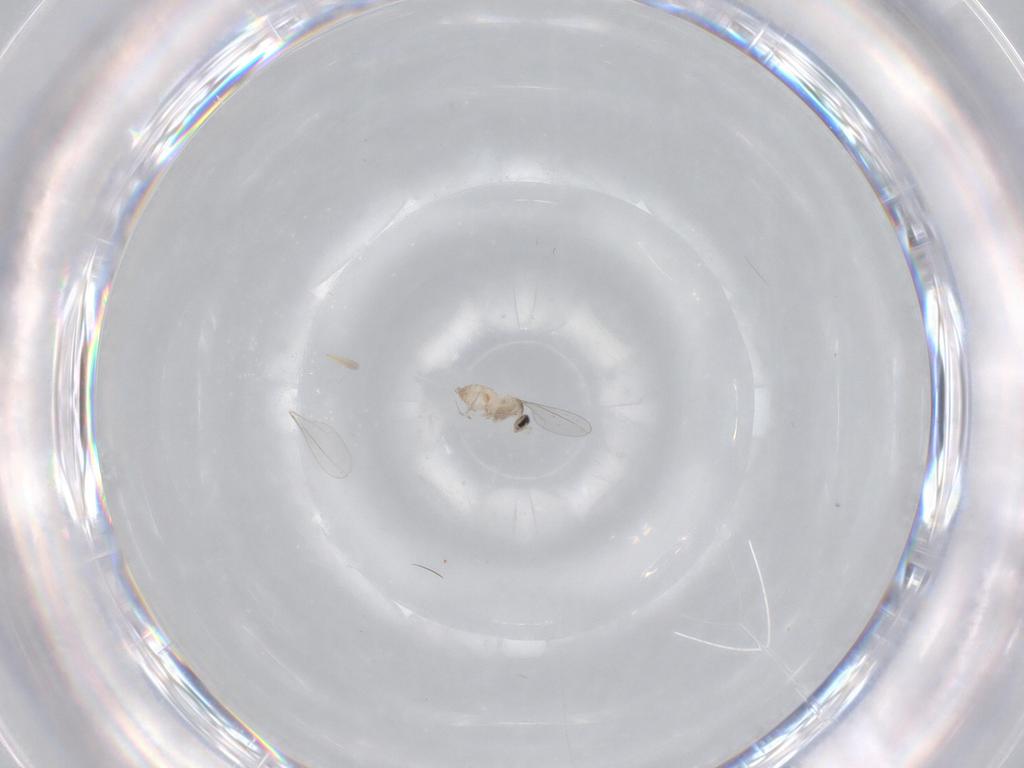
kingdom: Animalia
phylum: Arthropoda
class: Insecta
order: Diptera
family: Cecidomyiidae
